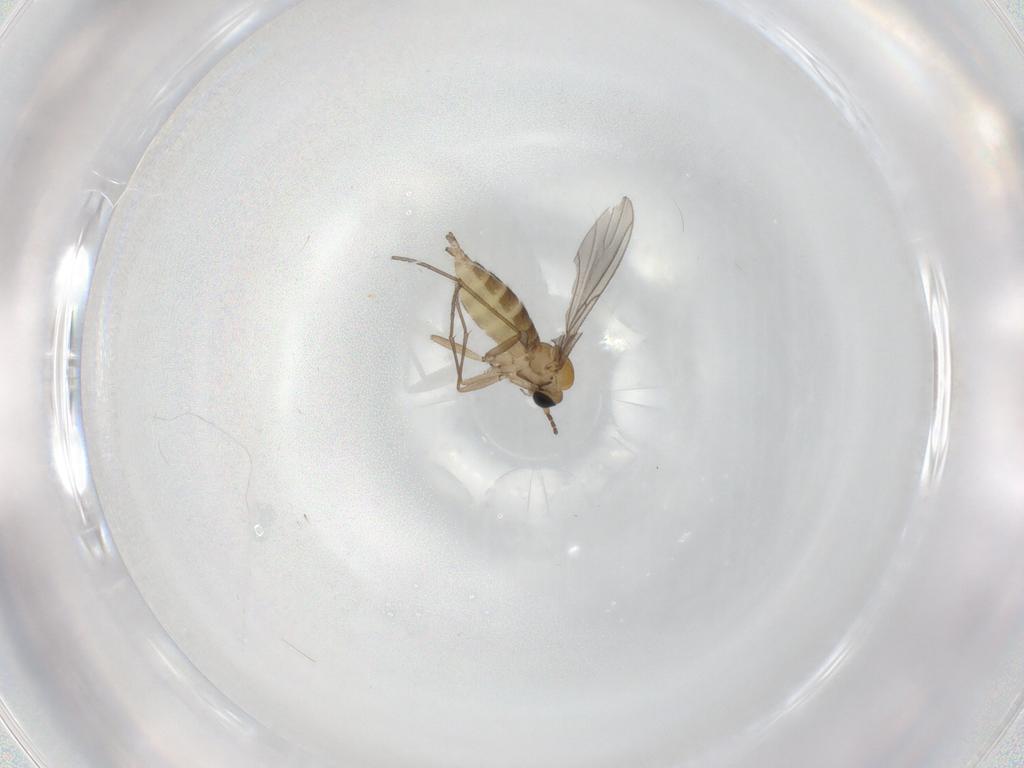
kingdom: Animalia
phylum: Arthropoda
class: Insecta
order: Diptera
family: Sciaridae
